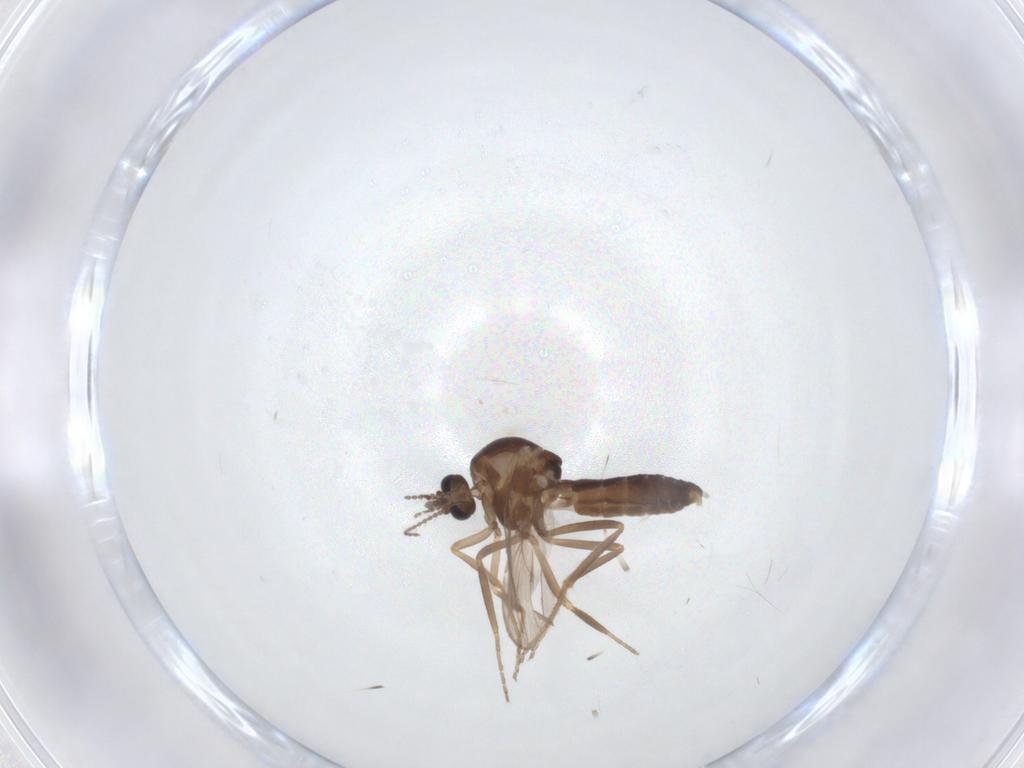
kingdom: Animalia
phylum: Arthropoda
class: Insecta
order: Diptera
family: Ceratopogonidae
